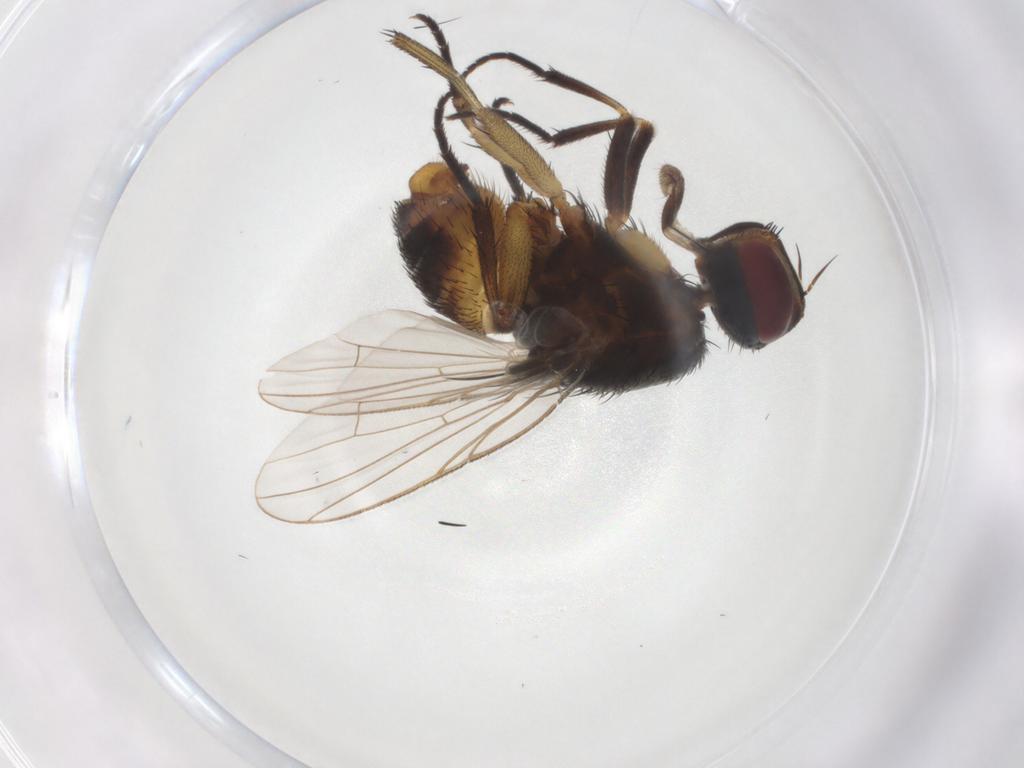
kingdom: Animalia
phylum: Arthropoda
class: Insecta
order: Diptera
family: Muscidae
